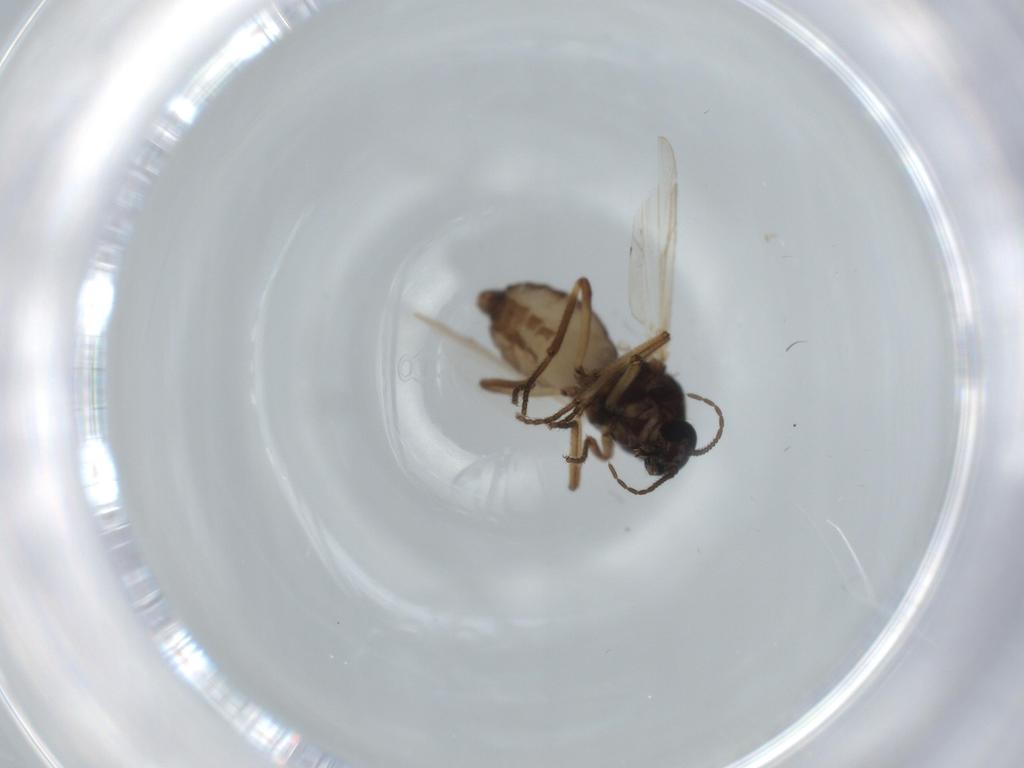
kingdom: Animalia
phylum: Arthropoda
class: Insecta
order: Diptera
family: Ceratopogonidae
